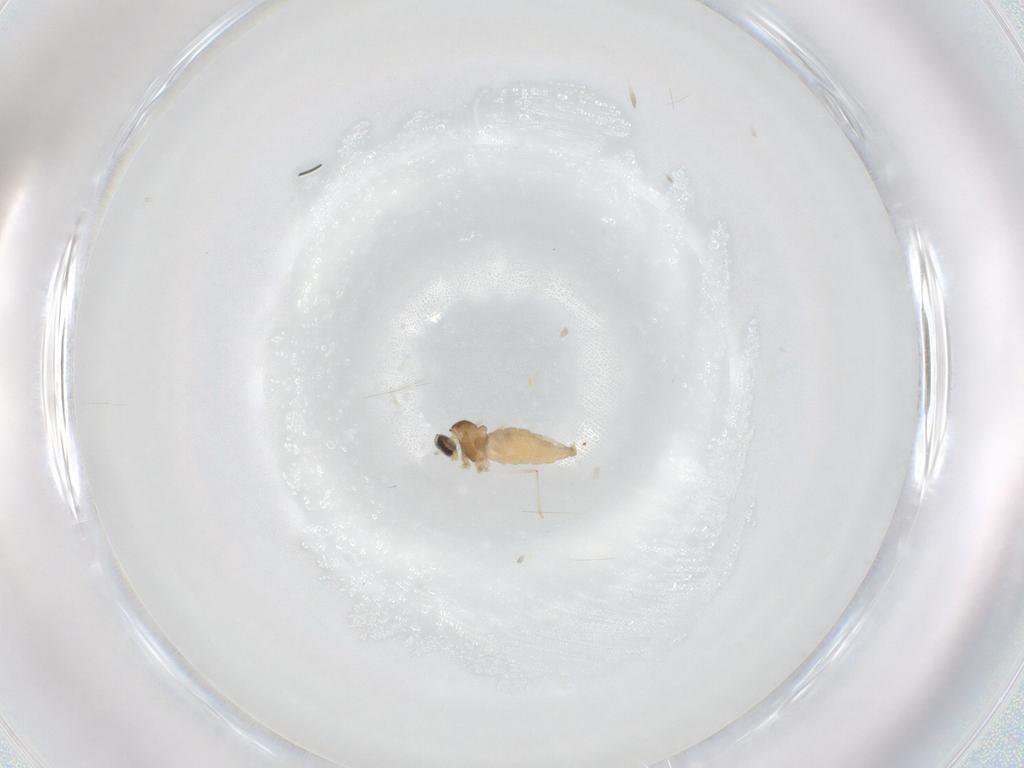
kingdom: Animalia
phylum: Arthropoda
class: Insecta
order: Diptera
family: Cecidomyiidae
